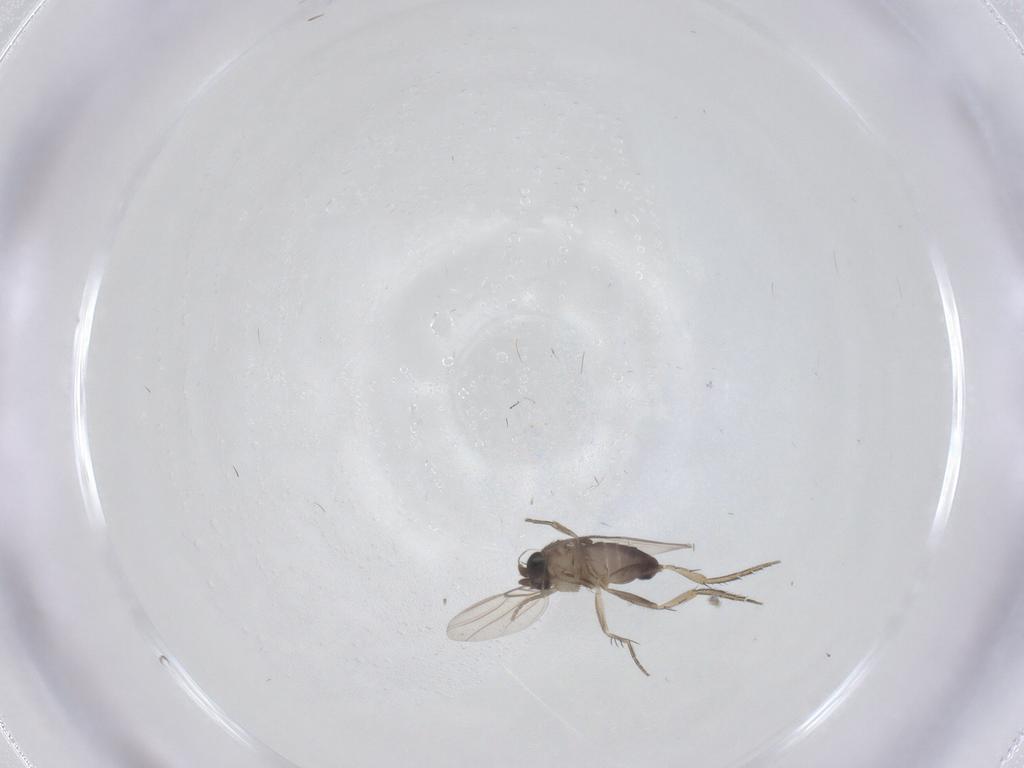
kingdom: Animalia
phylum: Arthropoda
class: Insecta
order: Diptera
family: Phoridae
